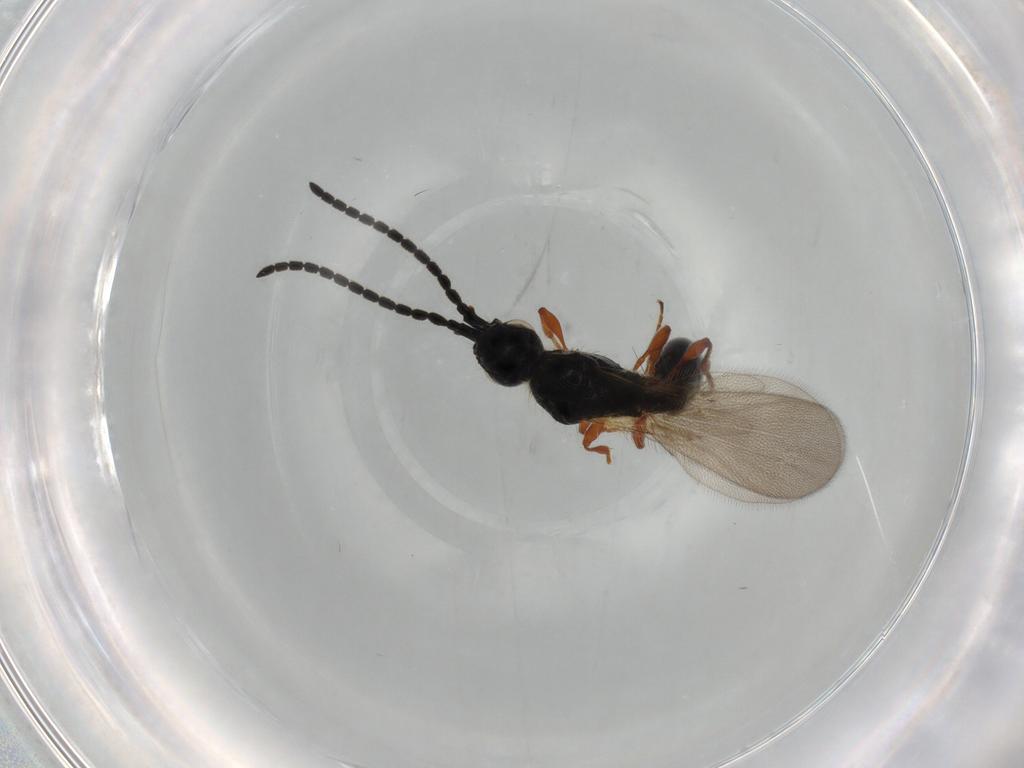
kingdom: Animalia
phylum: Arthropoda
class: Insecta
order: Hymenoptera
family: Diapriidae
